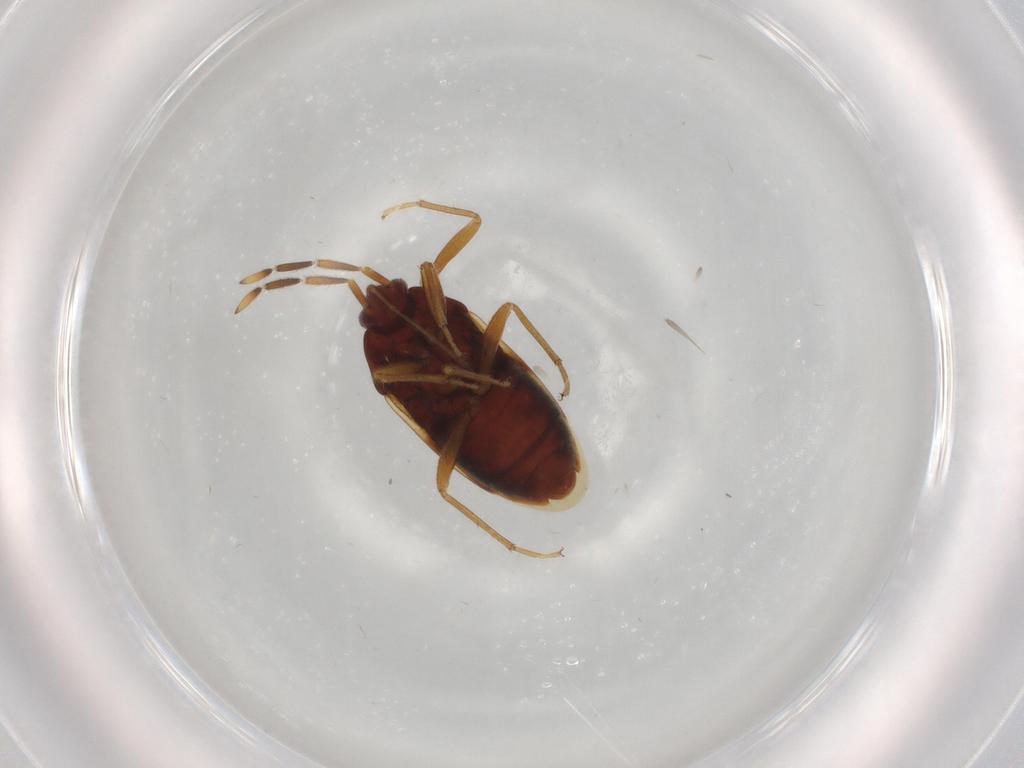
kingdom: Animalia
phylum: Arthropoda
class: Insecta
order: Hemiptera
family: Rhyparochromidae
